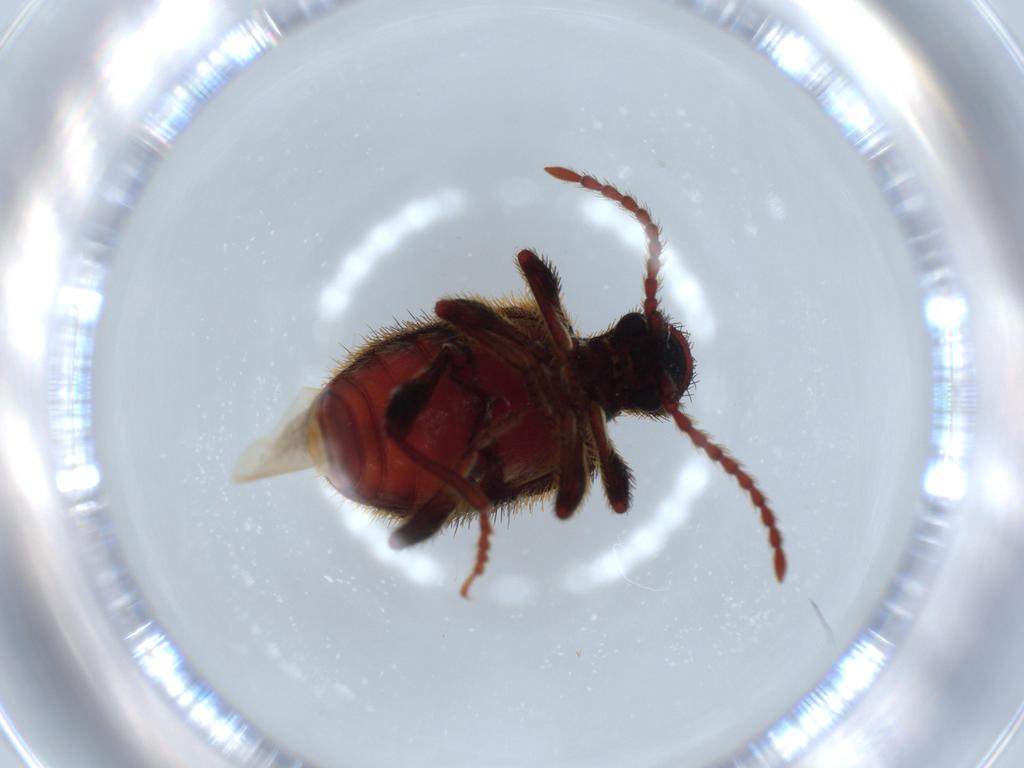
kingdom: Animalia
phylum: Arthropoda
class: Insecta
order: Coleoptera
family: Ptinidae
